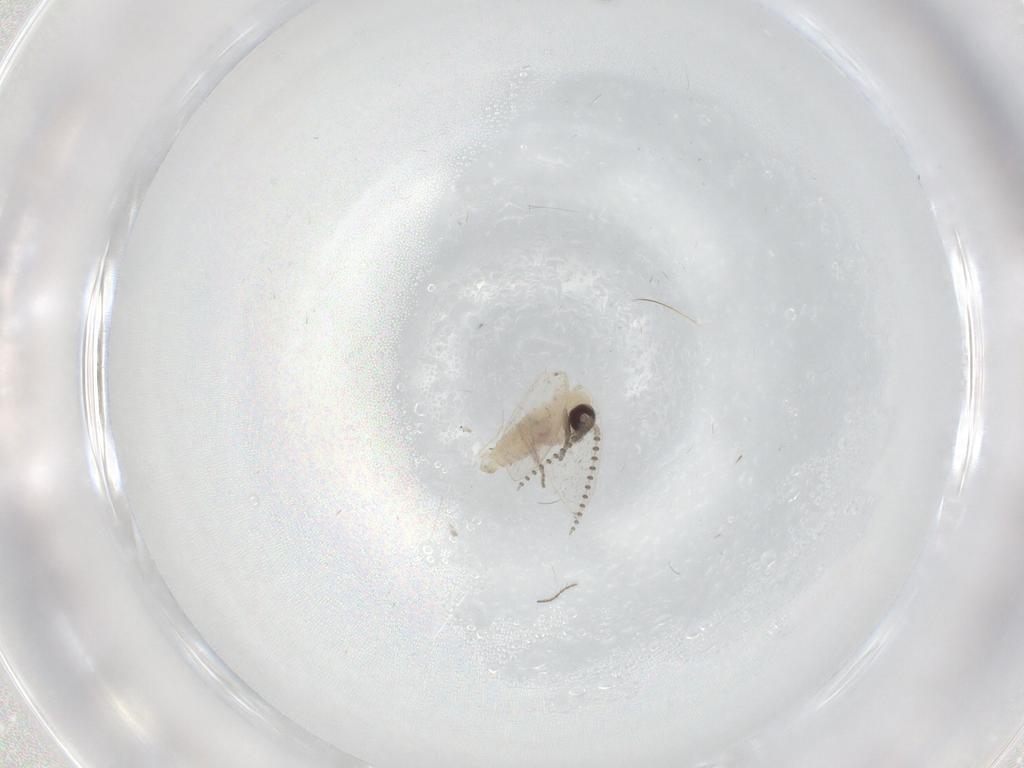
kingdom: Animalia
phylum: Arthropoda
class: Insecta
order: Diptera
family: Psychodidae
